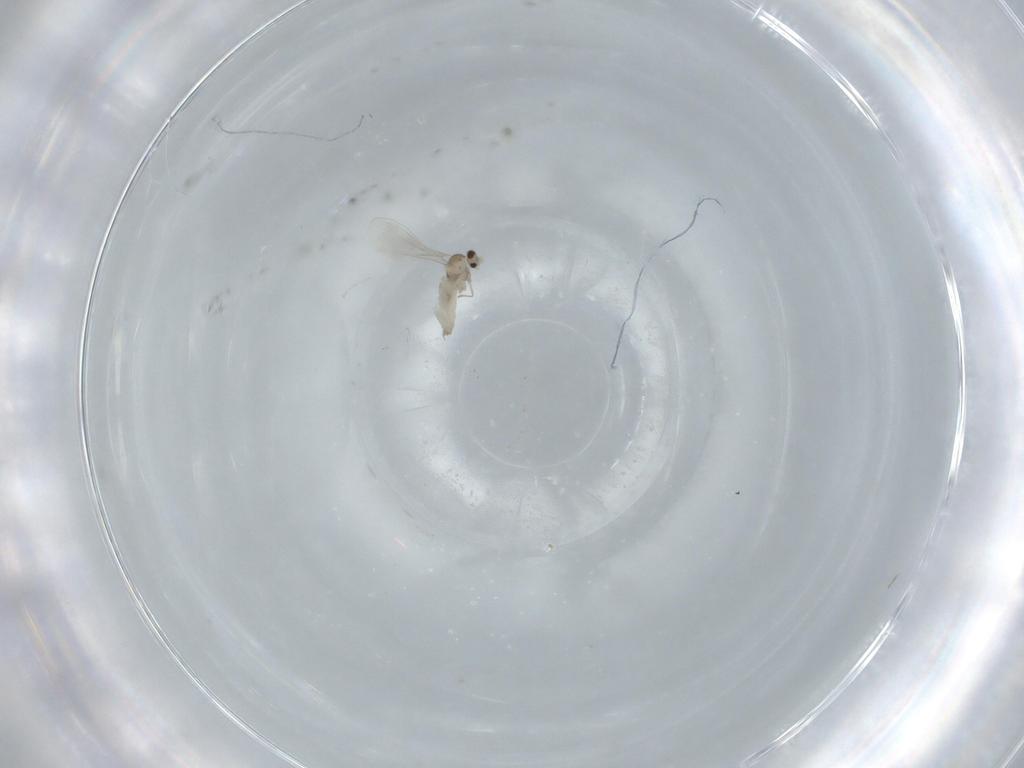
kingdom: Animalia
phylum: Arthropoda
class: Insecta
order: Diptera
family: Cecidomyiidae
